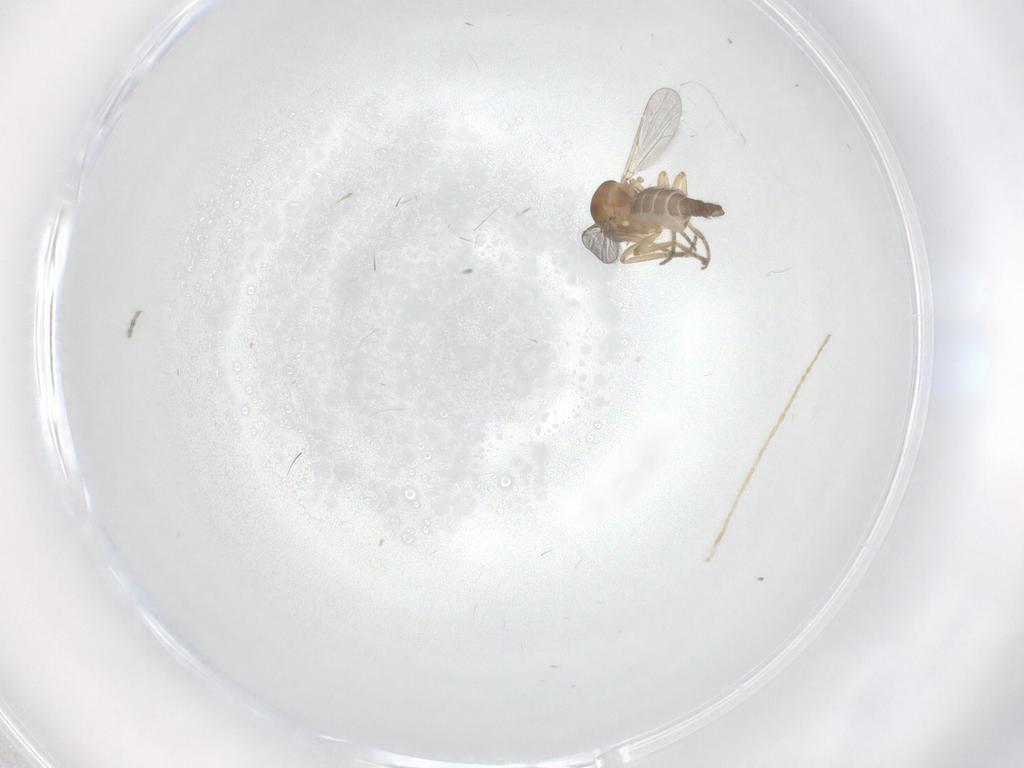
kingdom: Animalia
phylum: Arthropoda
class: Insecta
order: Diptera
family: Ceratopogonidae
